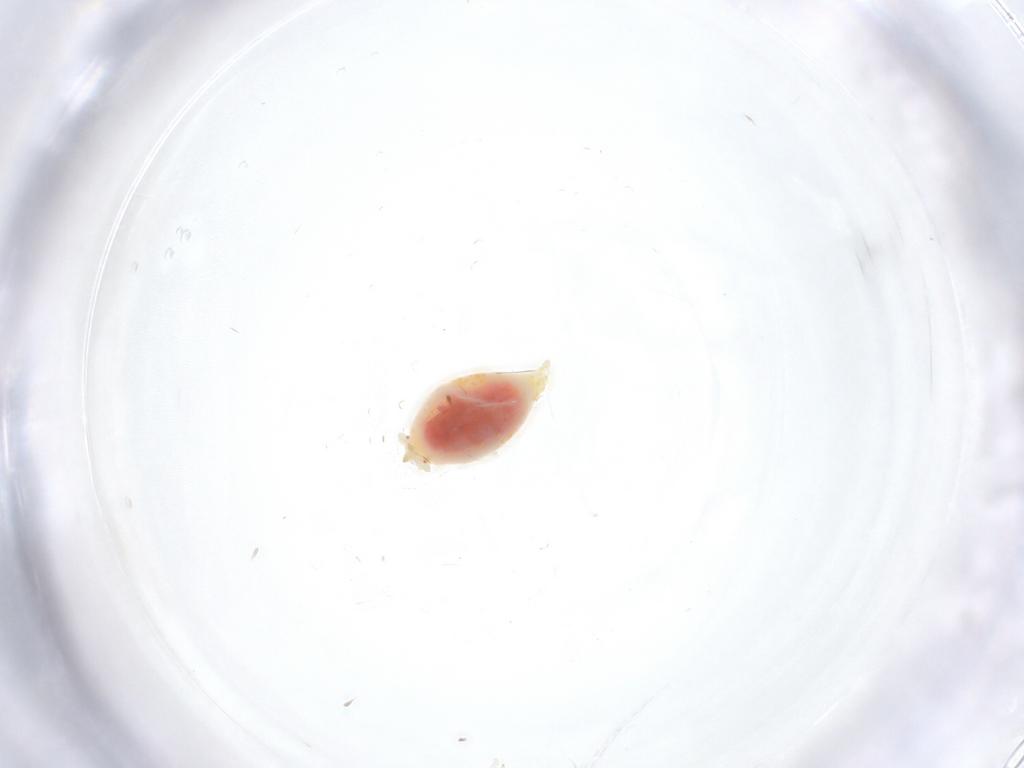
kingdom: Animalia
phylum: Arthropoda
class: Insecta
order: Neuroptera
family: Coniopterygidae
